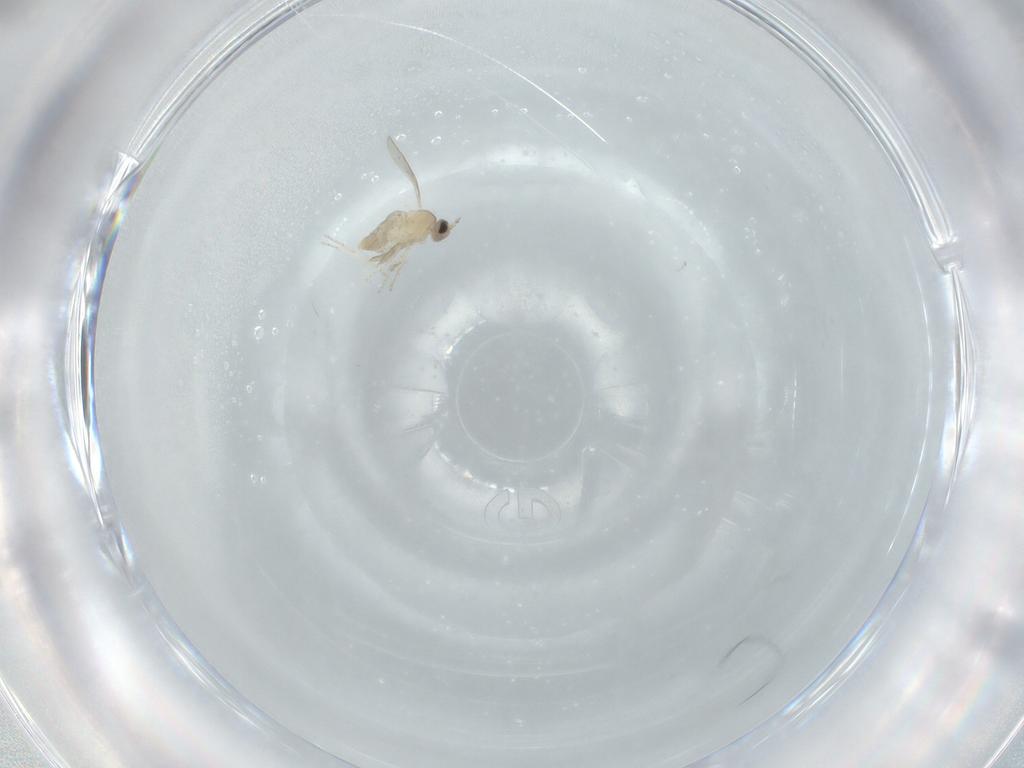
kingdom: Animalia
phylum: Arthropoda
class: Insecta
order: Diptera
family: Cecidomyiidae
